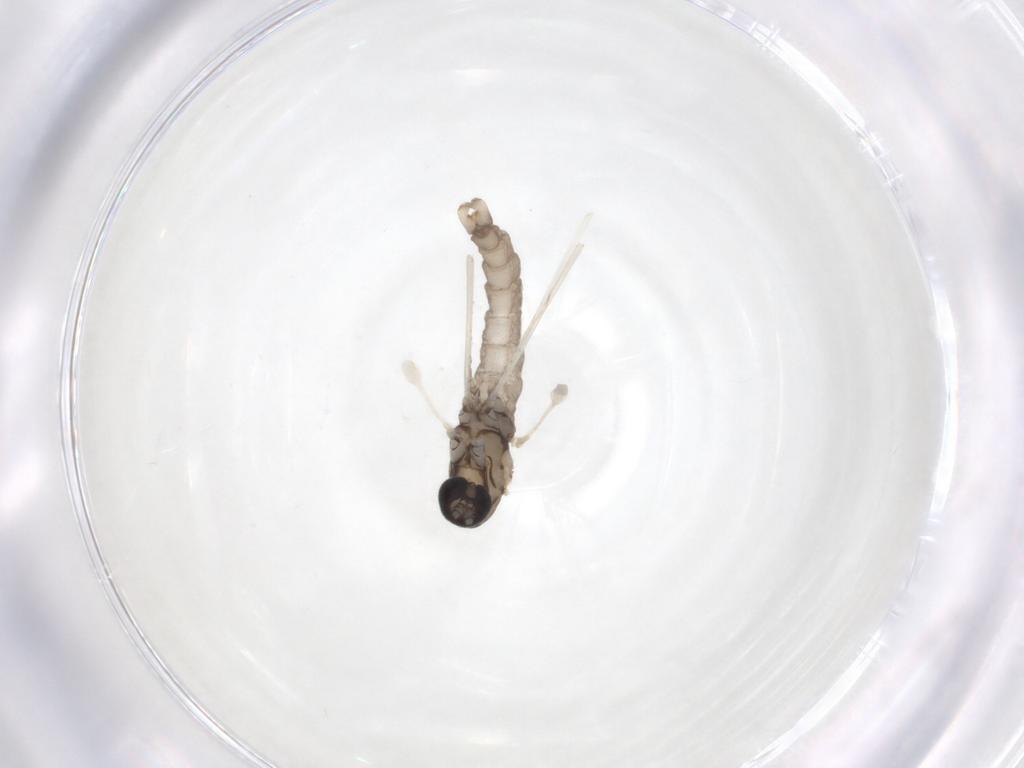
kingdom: Animalia
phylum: Arthropoda
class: Insecta
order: Diptera
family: Cecidomyiidae
